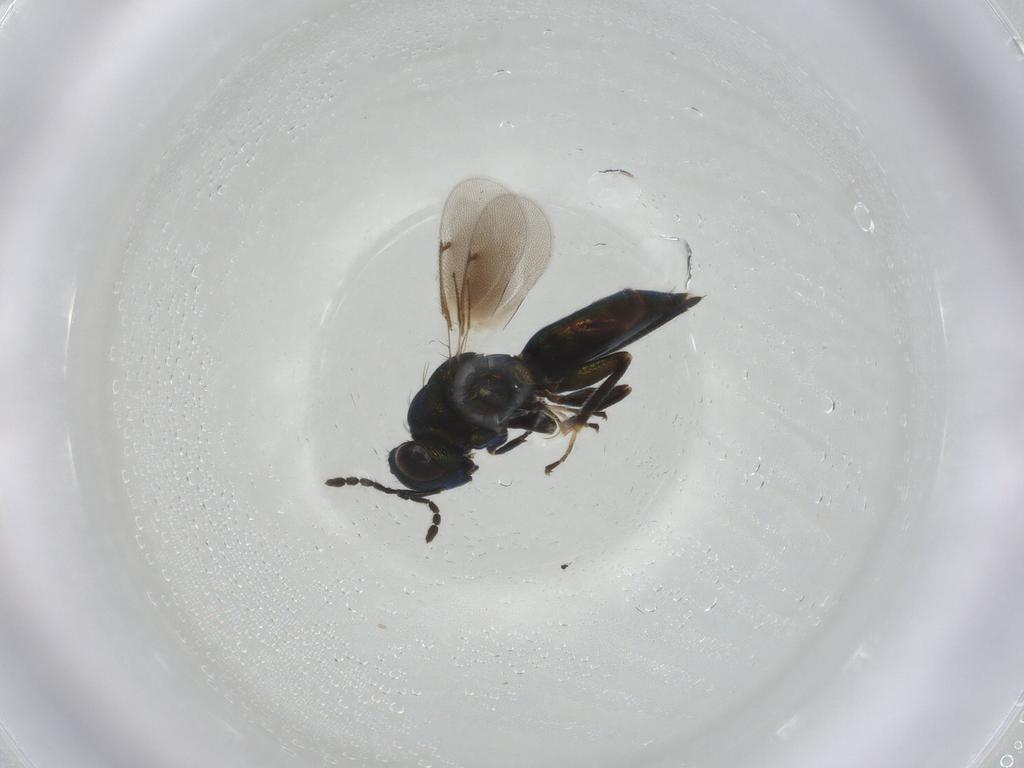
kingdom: Animalia
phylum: Arthropoda
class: Insecta
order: Hymenoptera
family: Eulophidae
